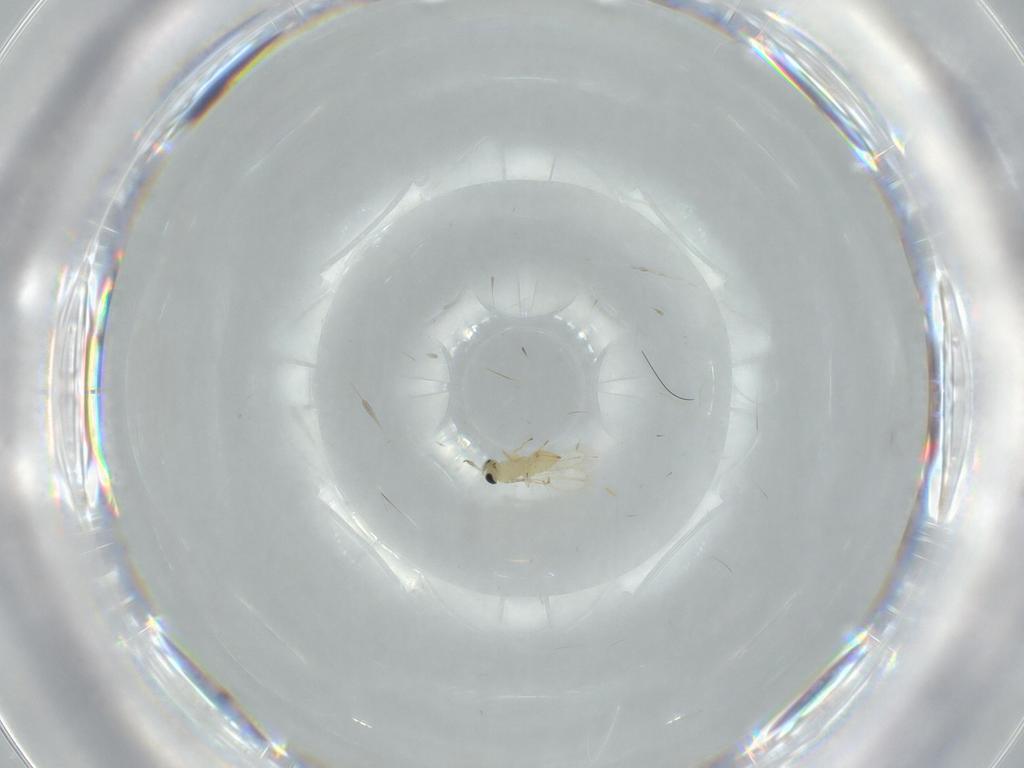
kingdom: Animalia
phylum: Arthropoda
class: Insecta
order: Hymenoptera
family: Trichogrammatidae
